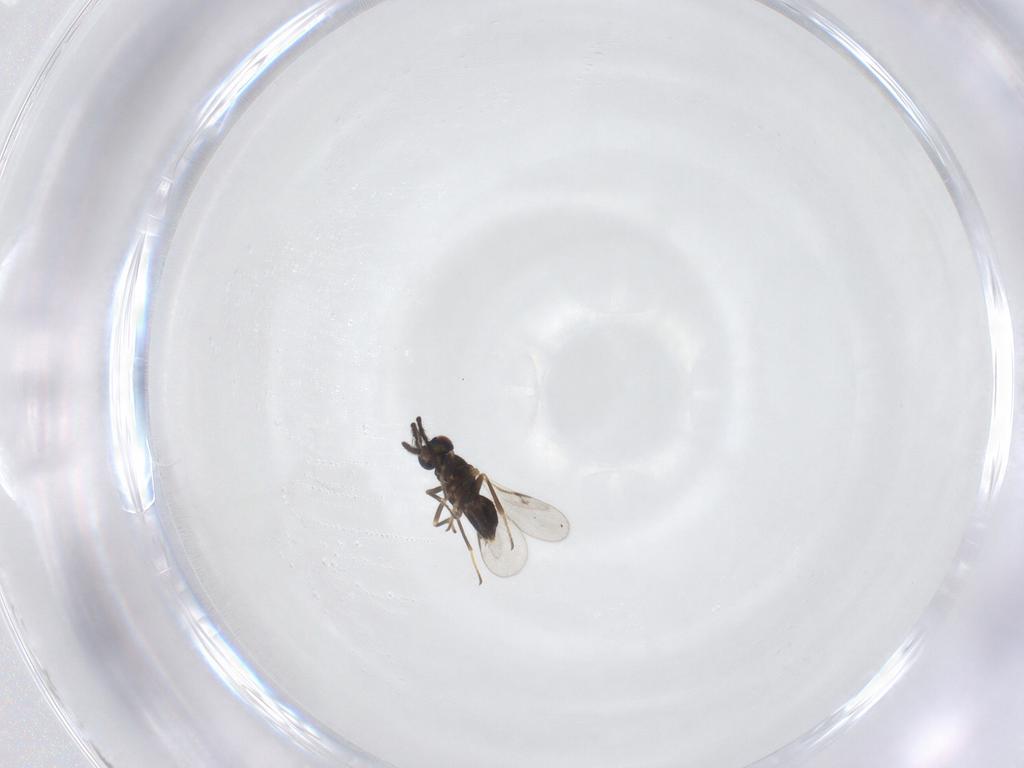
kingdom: Animalia
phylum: Arthropoda
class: Insecta
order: Hymenoptera
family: Encyrtidae
